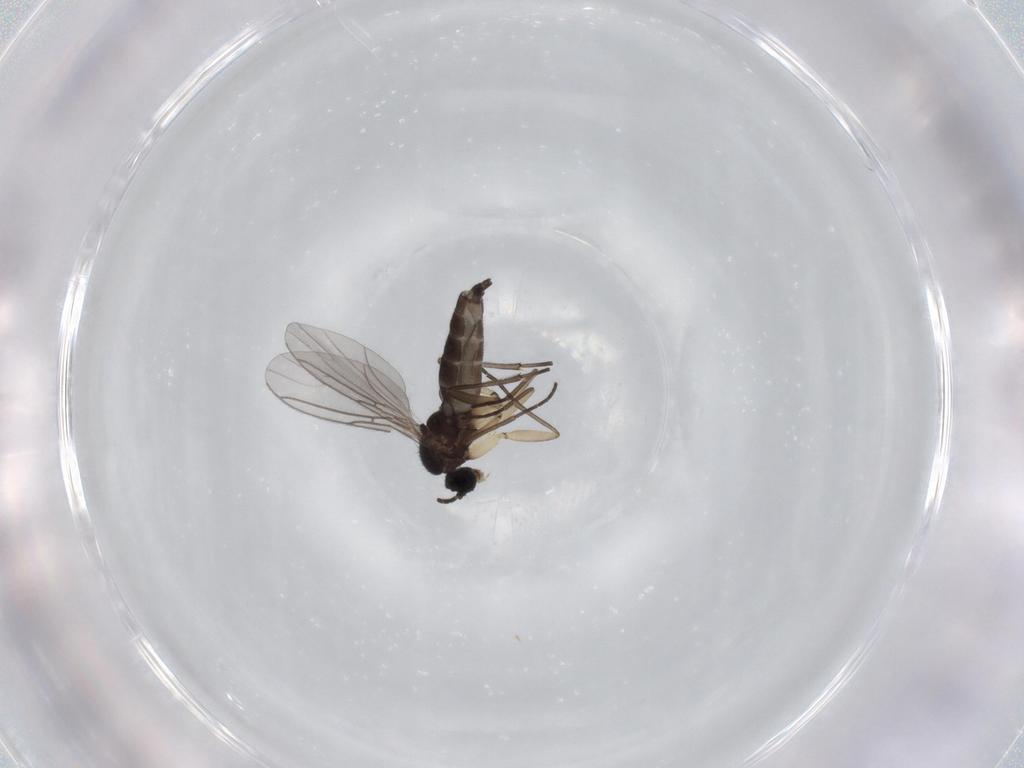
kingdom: Animalia
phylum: Arthropoda
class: Insecta
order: Diptera
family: Sciaridae
